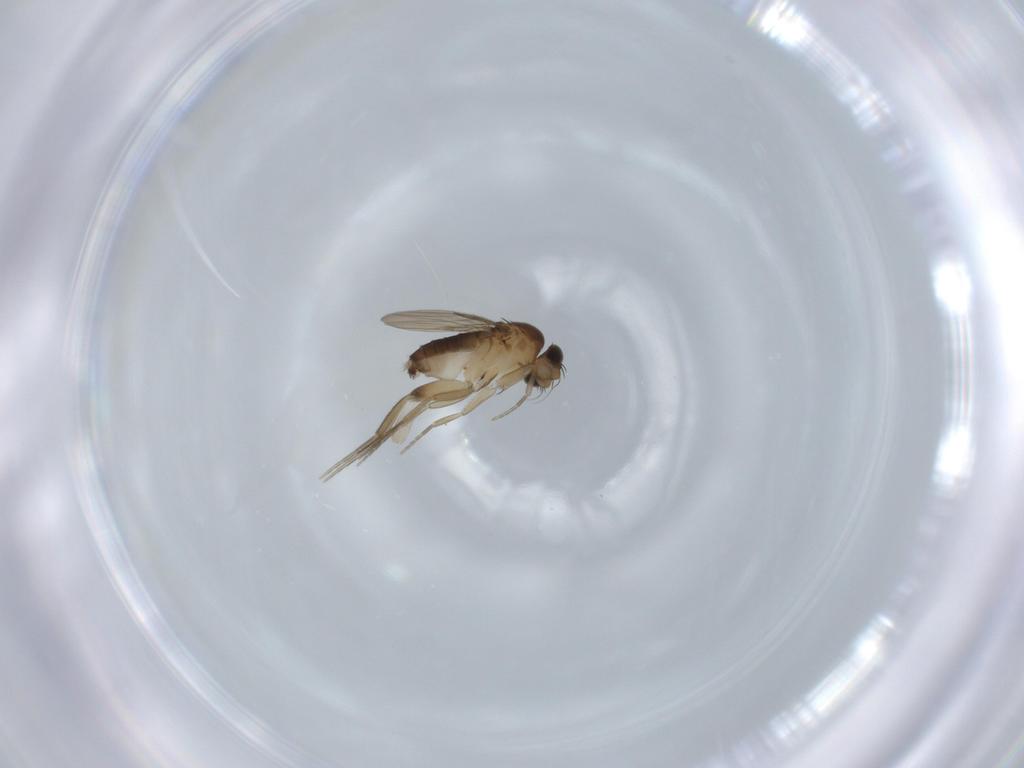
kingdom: Animalia
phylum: Arthropoda
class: Insecta
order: Diptera
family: Phoridae
